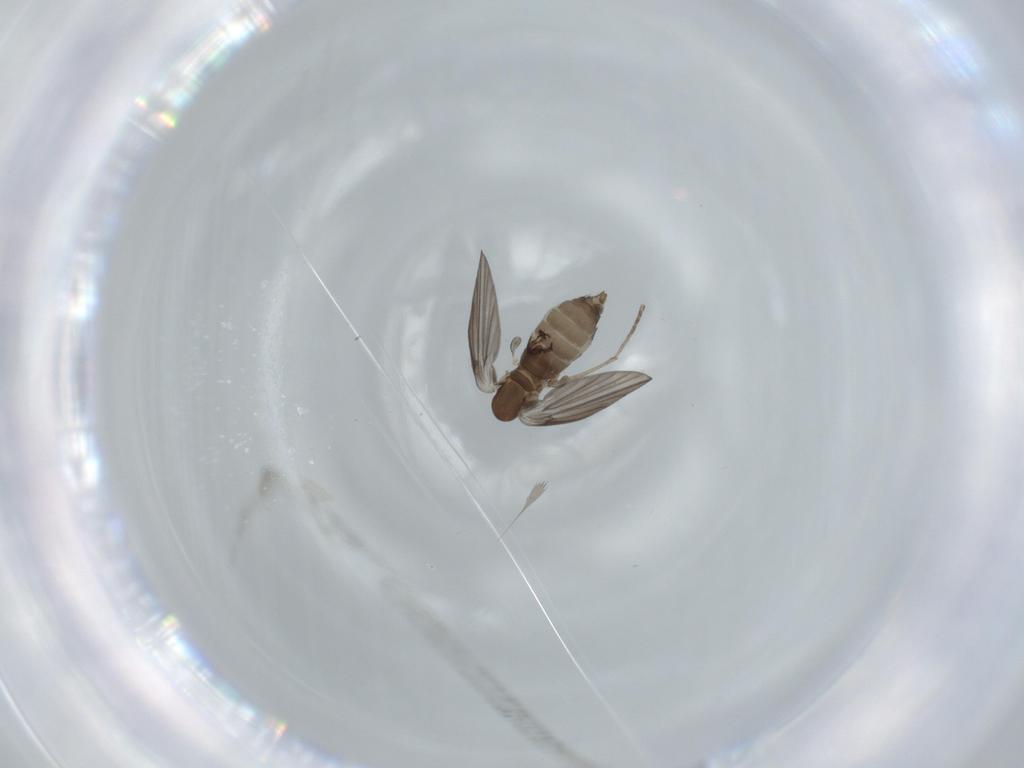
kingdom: Animalia
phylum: Arthropoda
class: Insecta
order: Diptera
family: Psychodidae
